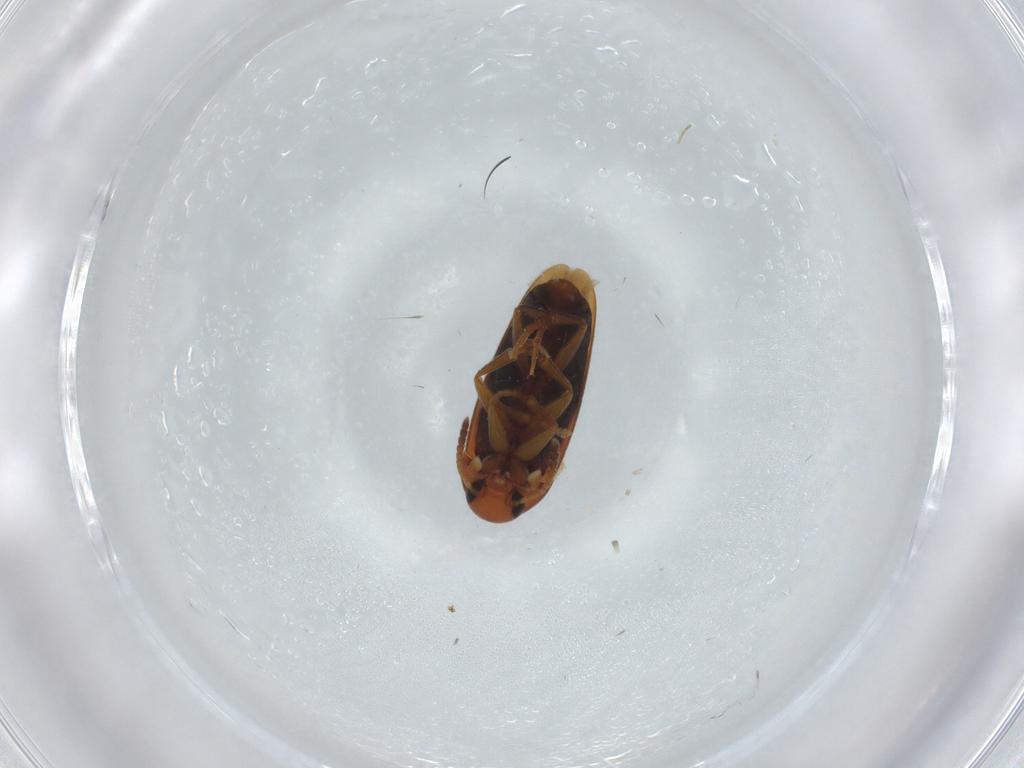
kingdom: Animalia
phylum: Arthropoda
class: Insecta
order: Coleoptera
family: Scraptiidae
